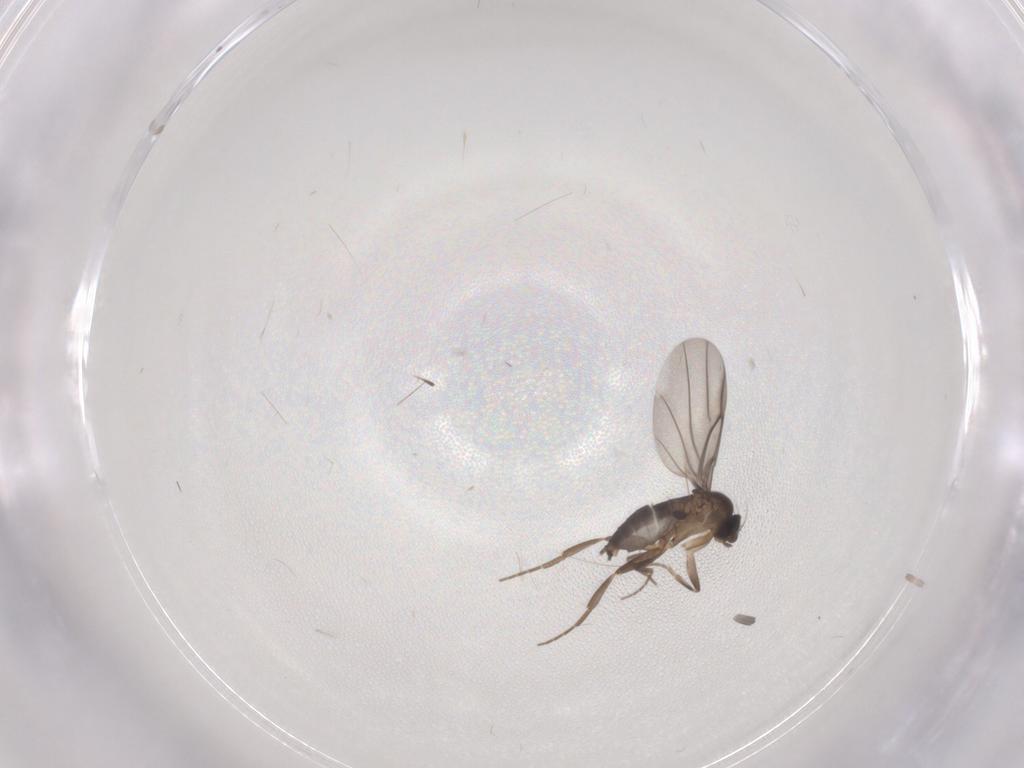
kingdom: Animalia
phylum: Arthropoda
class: Insecta
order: Diptera
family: Phoridae
